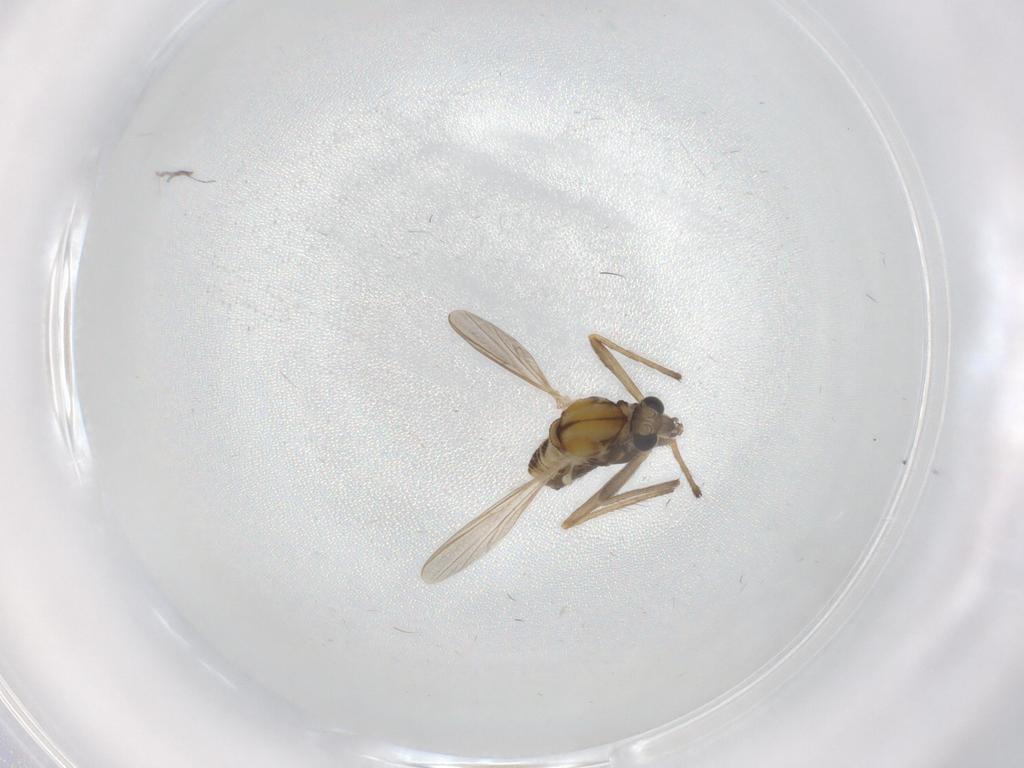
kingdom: Animalia
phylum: Arthropoda
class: Insecta
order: Diptera
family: Chironomidae
